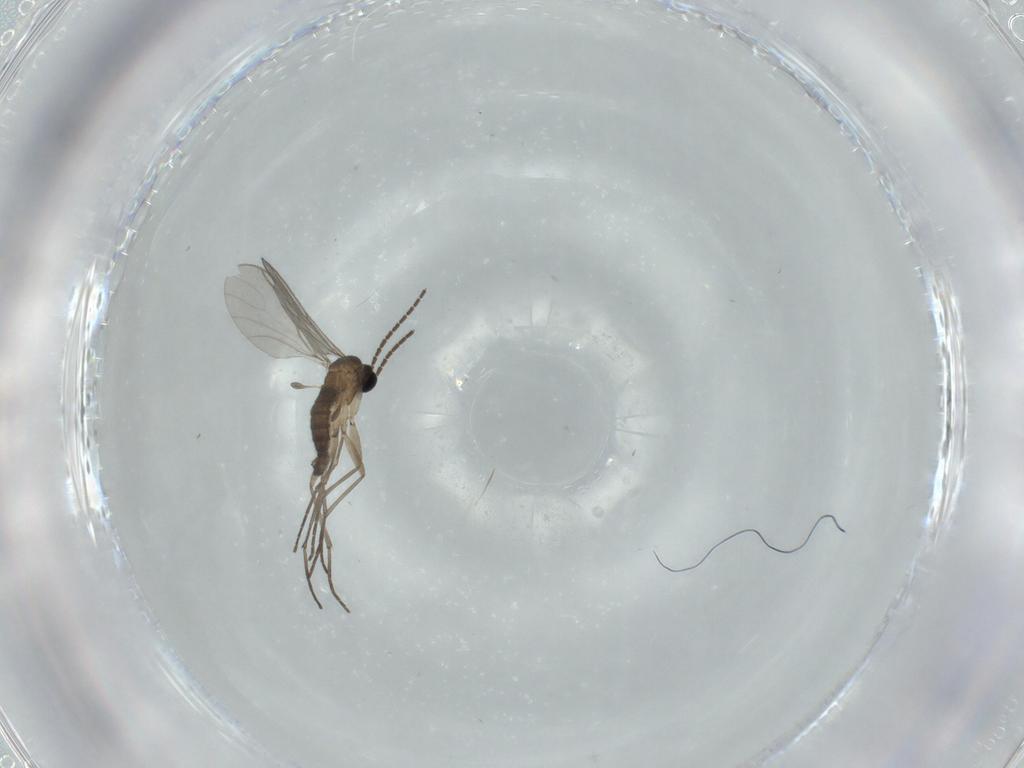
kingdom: Animalia
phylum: Arthropoda
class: Insecta
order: Diptera
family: Sciaridae
